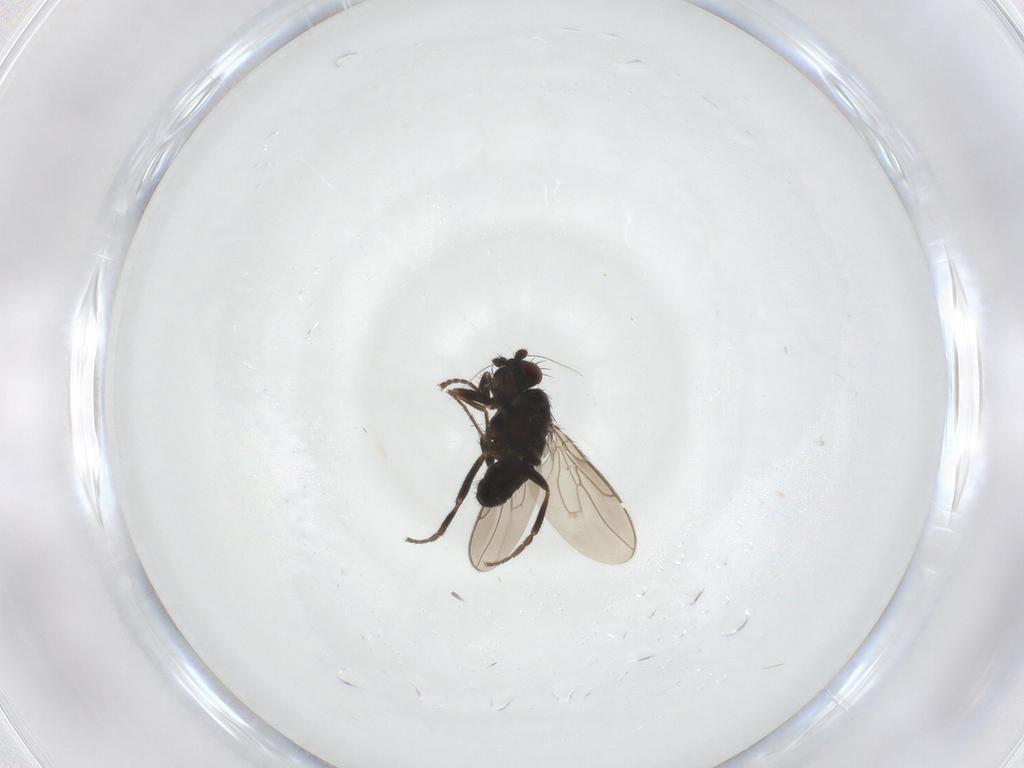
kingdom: Animalia
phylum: Arthropoda
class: Insecta
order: Diptera
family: Sphaeroceridae
